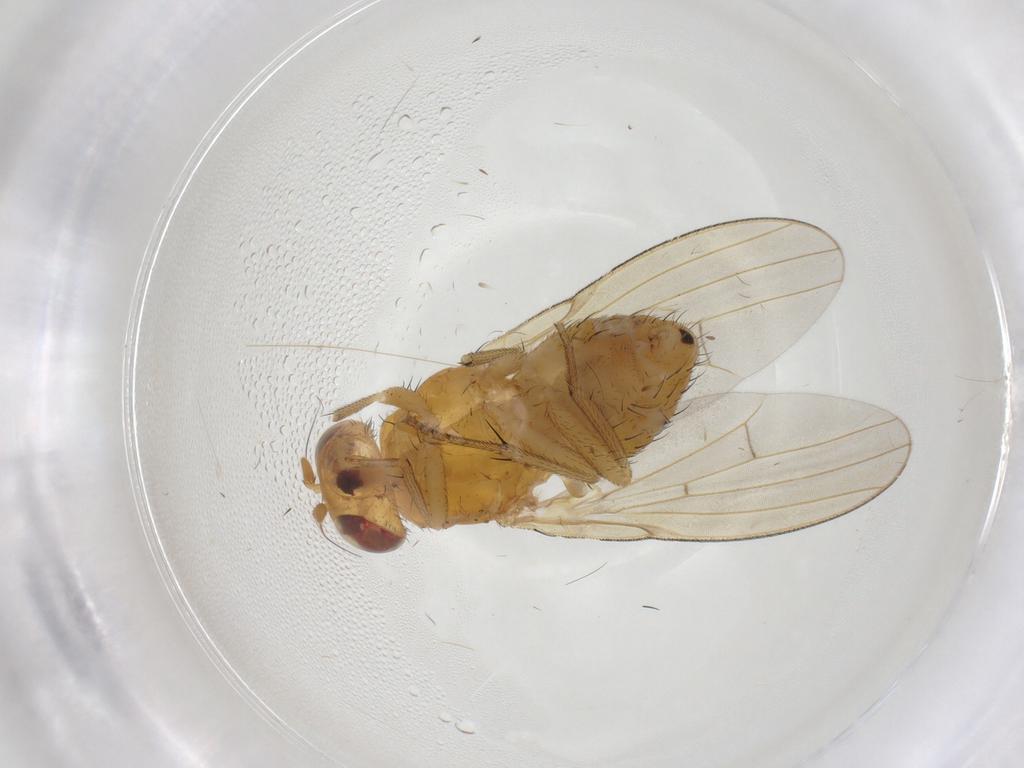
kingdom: Animalia
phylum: Arthropoda
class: Insecta
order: Diptera
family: Lauxaniidae
